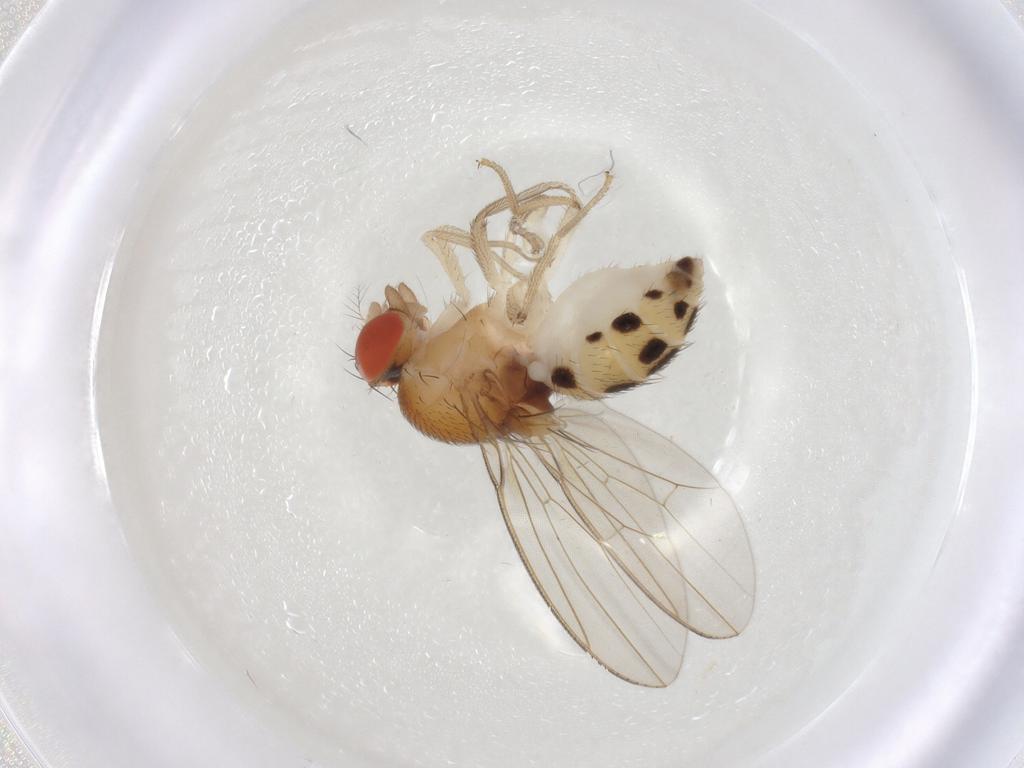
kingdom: Animalia
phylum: Arthropoda
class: Insecta
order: Diptera
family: Drosophilidae
